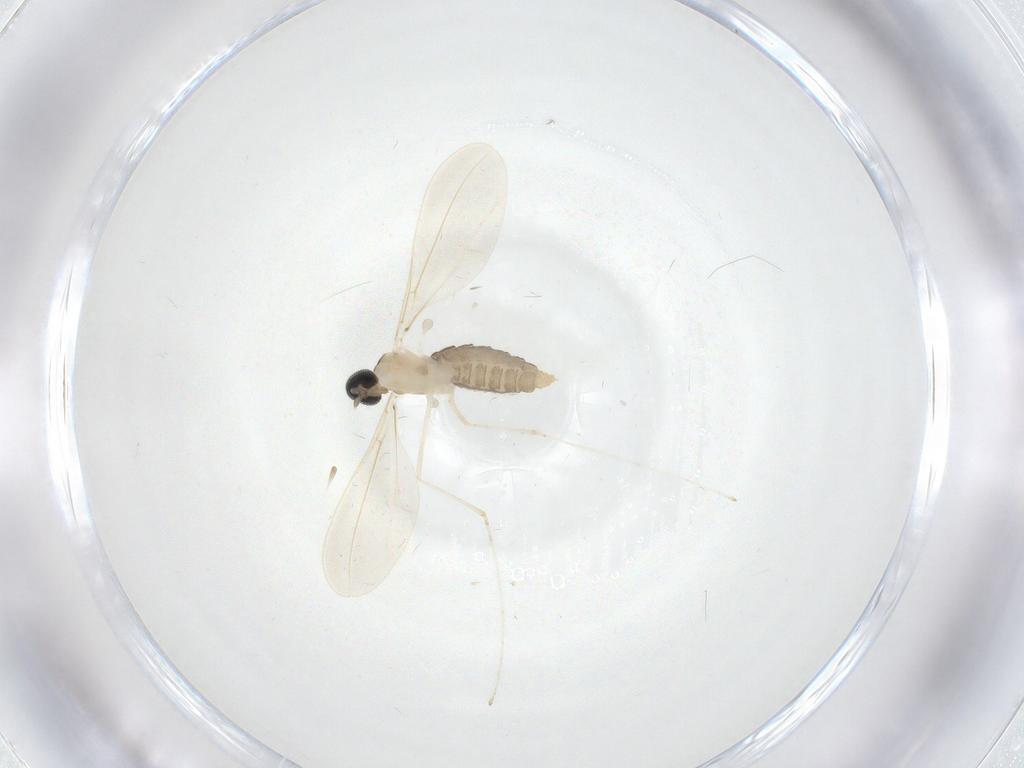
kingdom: Animalia
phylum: Arthropoda
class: Insecta
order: Diptera
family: Cecidomyiidae
